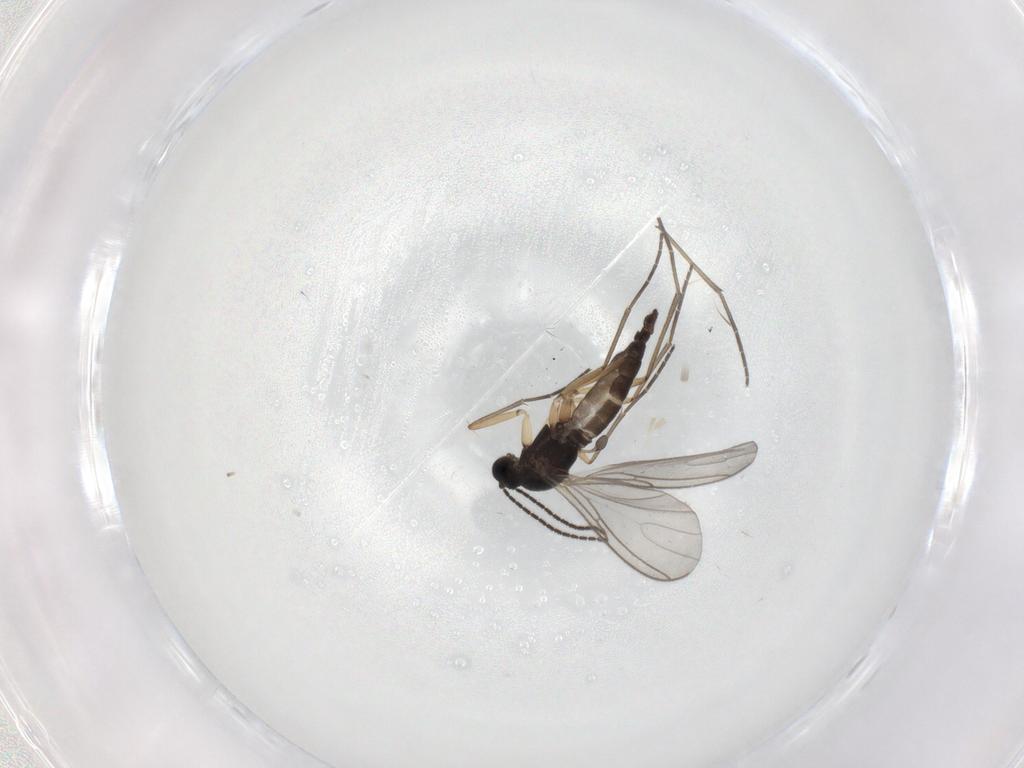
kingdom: Animalia
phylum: Arthropoda
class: Insecta
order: Diptera
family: Sciaridae
